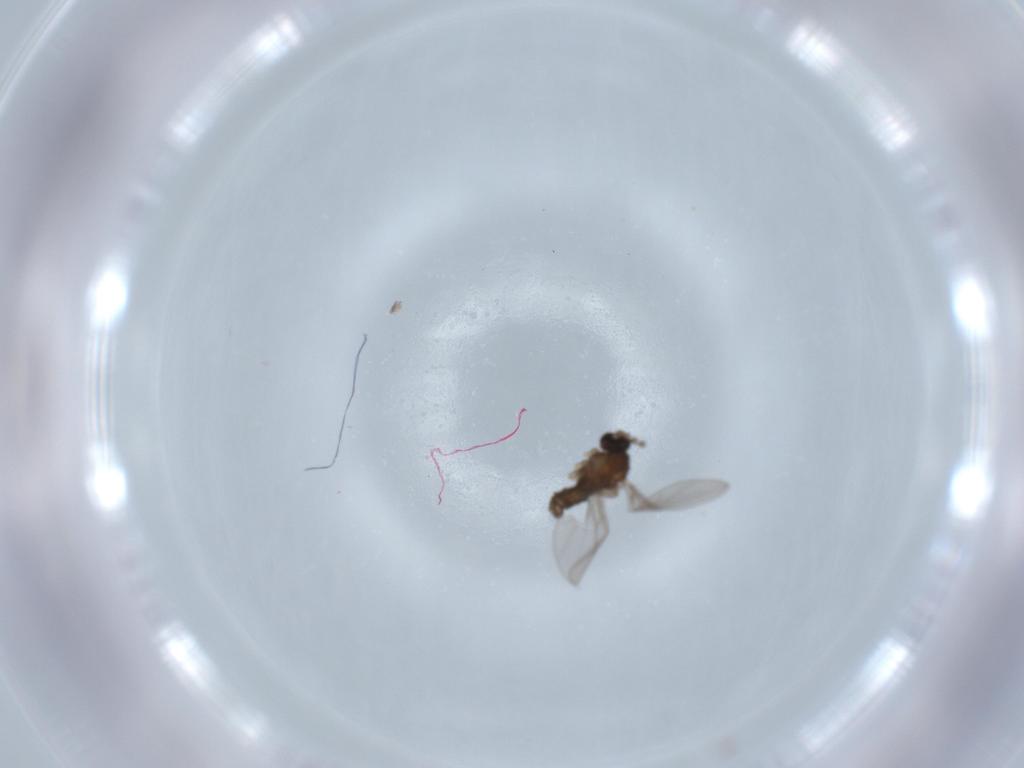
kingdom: Animalia
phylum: Arthropoda
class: Insecta
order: Diptera
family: Cecidomyiidae
